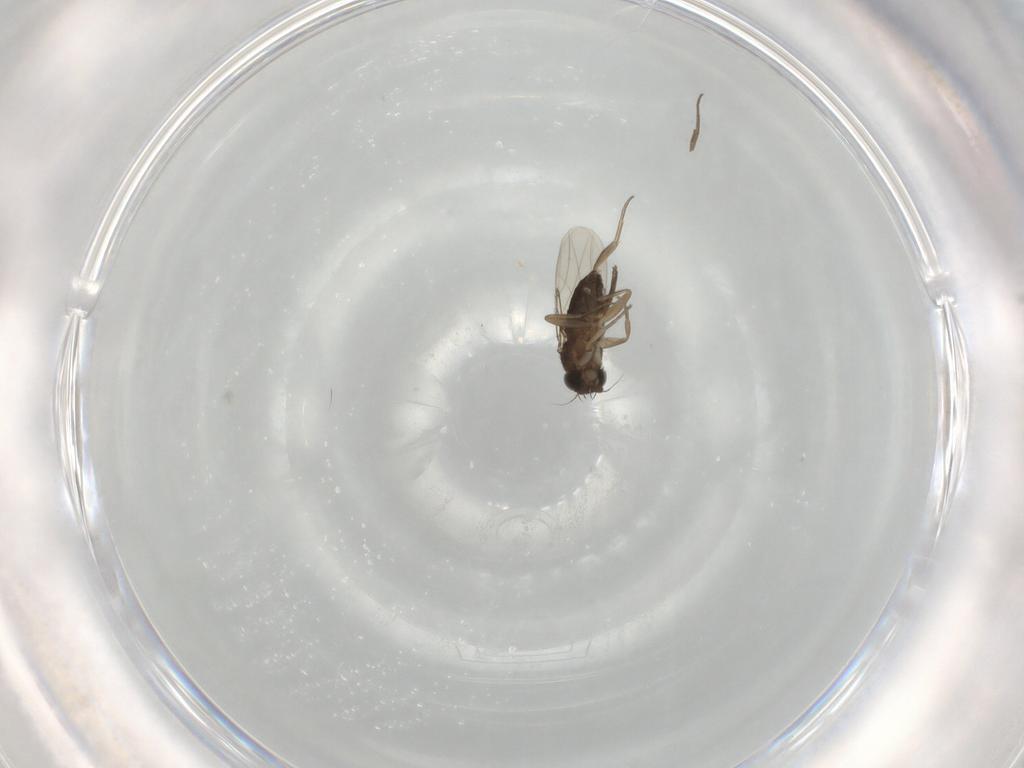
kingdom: Animalia
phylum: Arthropoda
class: Insecta
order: Diptera
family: Phoridae
